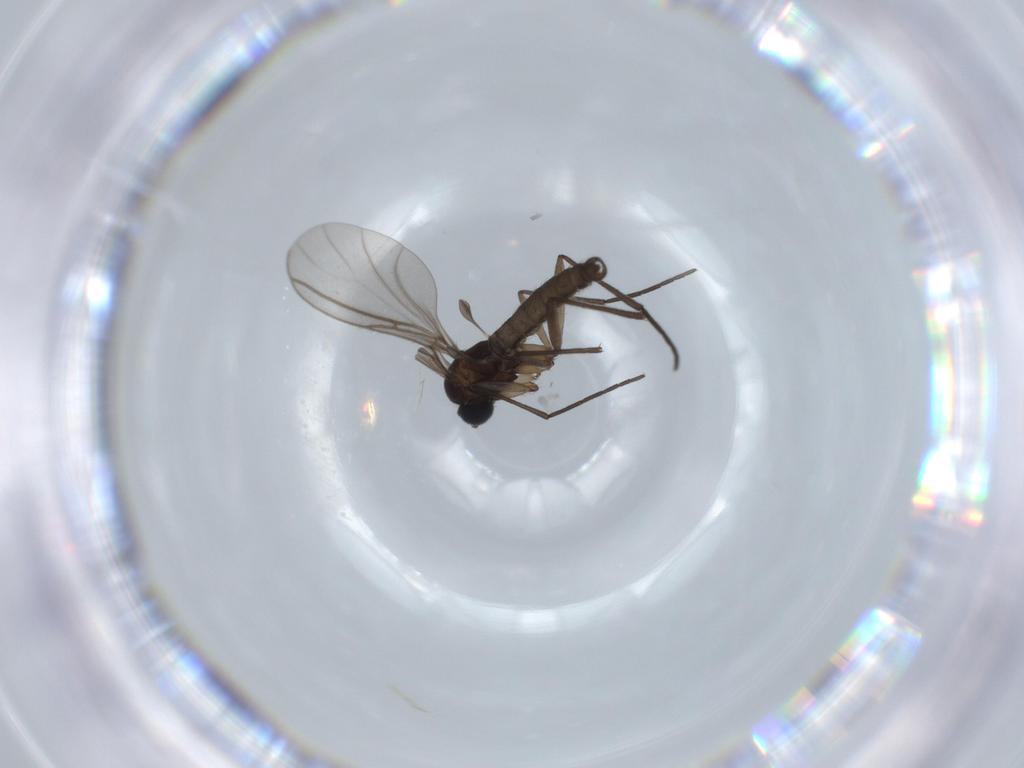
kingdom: Animalia
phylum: Arthropoda
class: Insecta
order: Diptera
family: Sciaridae
